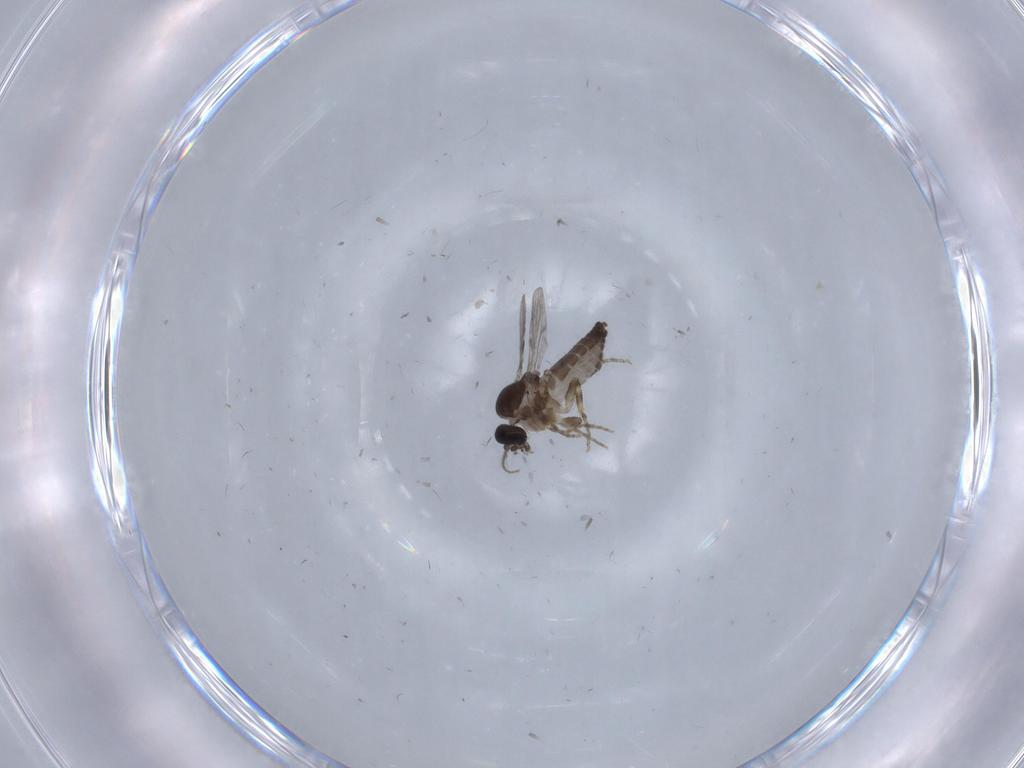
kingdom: Animalia
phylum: Arthropoda
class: Insecta
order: Diptera
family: Ceratopogonidae
